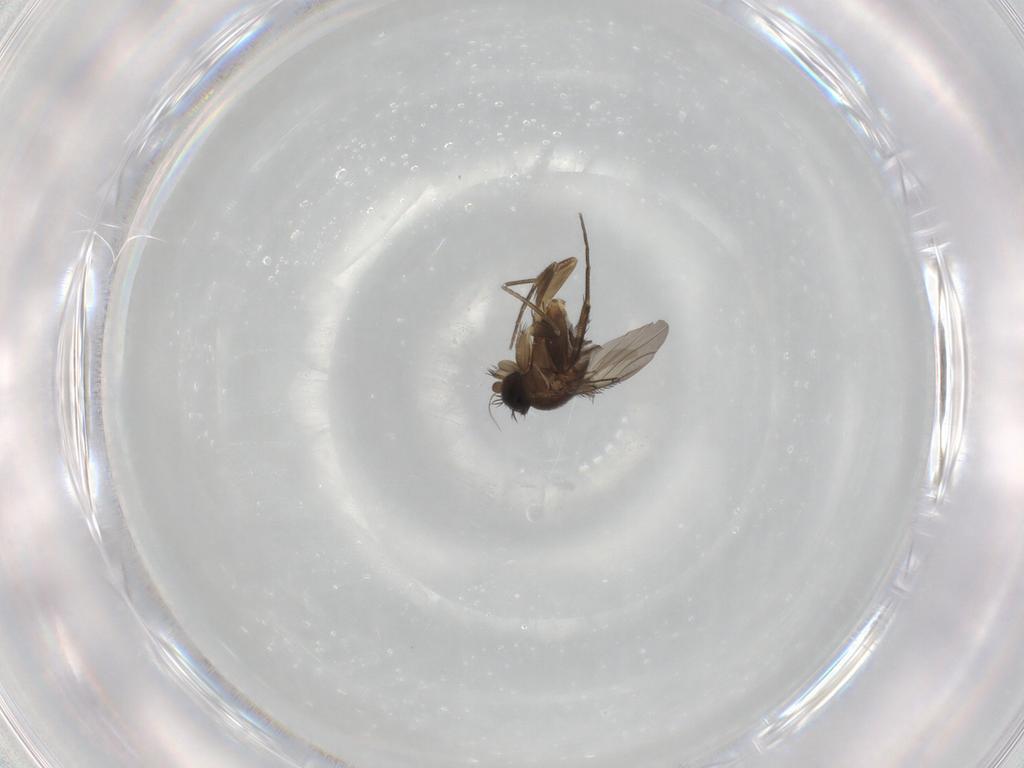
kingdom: Animalia
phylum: Arthropoda
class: Insecta
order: Diptera
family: Phoridae
